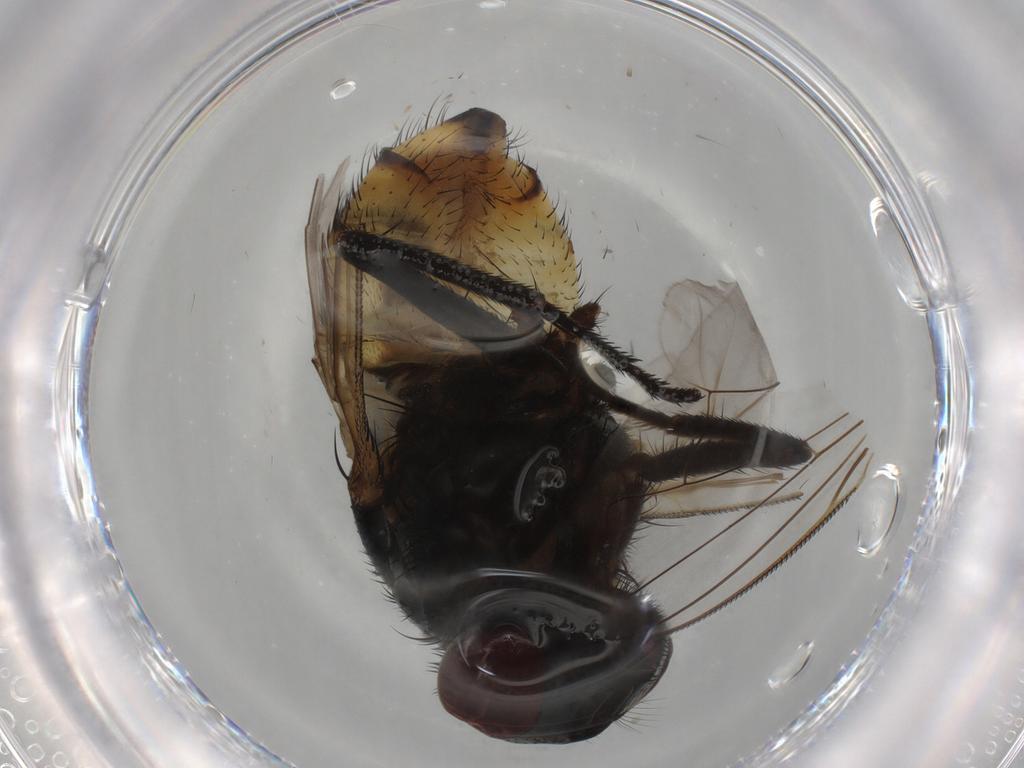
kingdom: Animalia
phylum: Arthropoda
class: Insecta
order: Diptera
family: Muscidae
